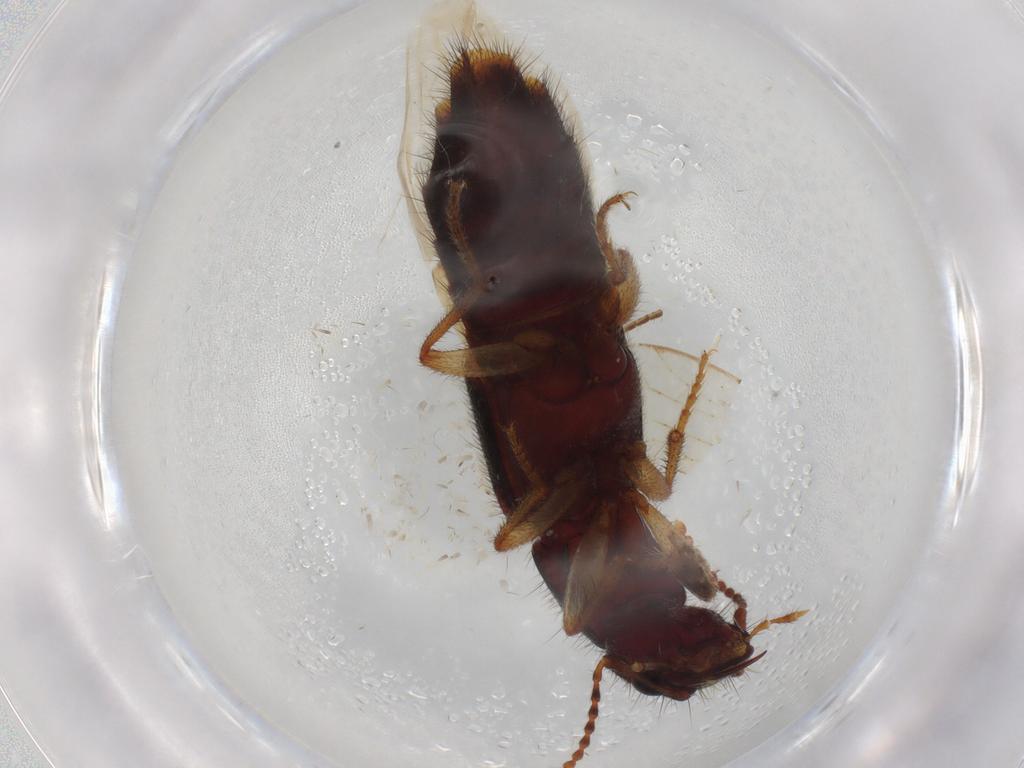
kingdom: Animalia
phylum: Arthropoda
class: Insecta
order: Coleoptera
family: Staphylinidae
